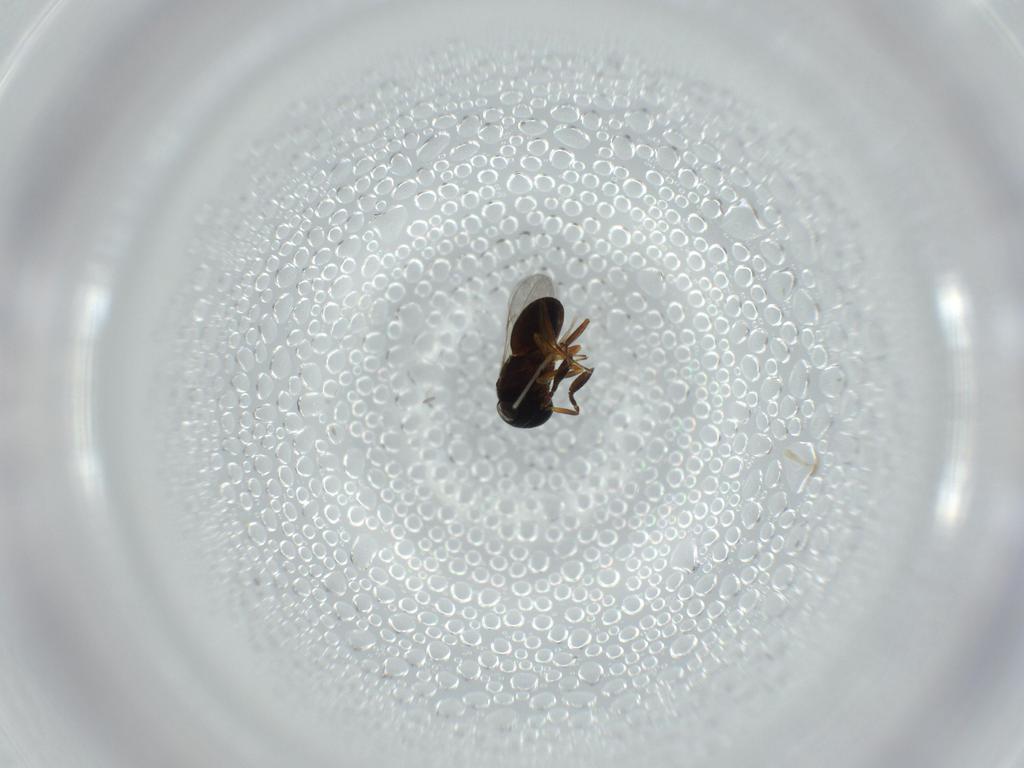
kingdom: Animalia
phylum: Arthropoda
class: Insecta
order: Coleoptera
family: Curculionidae
